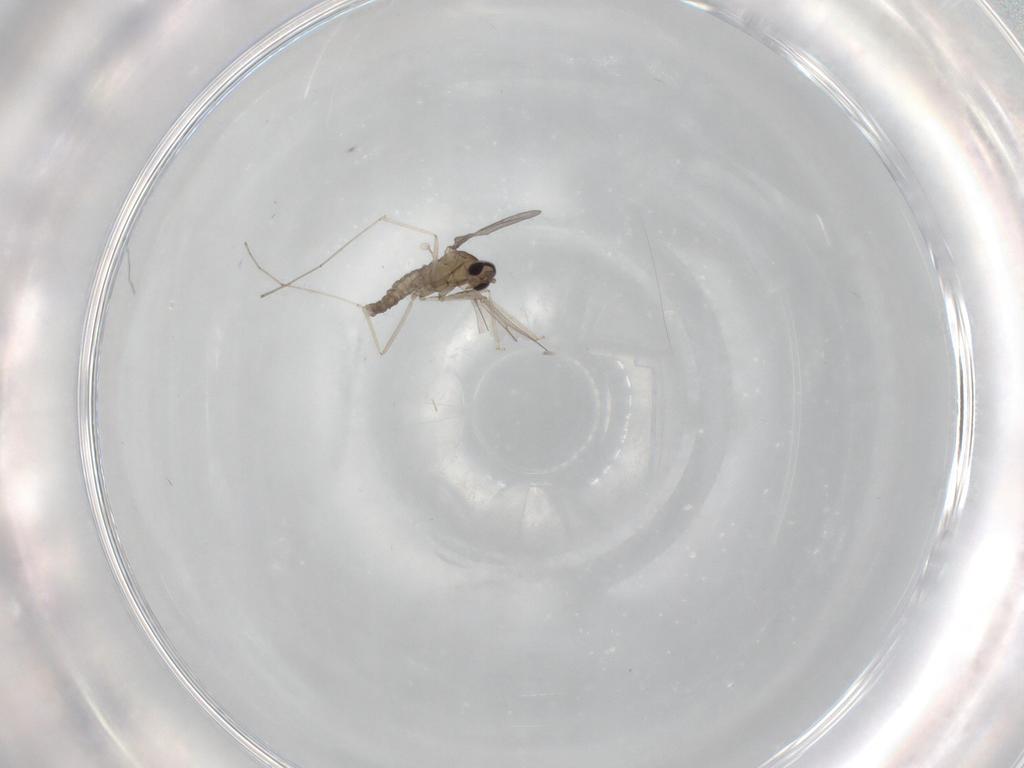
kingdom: Animalia
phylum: Arthropoda
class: Insecta
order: Diptera
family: Cecidomyiidae
